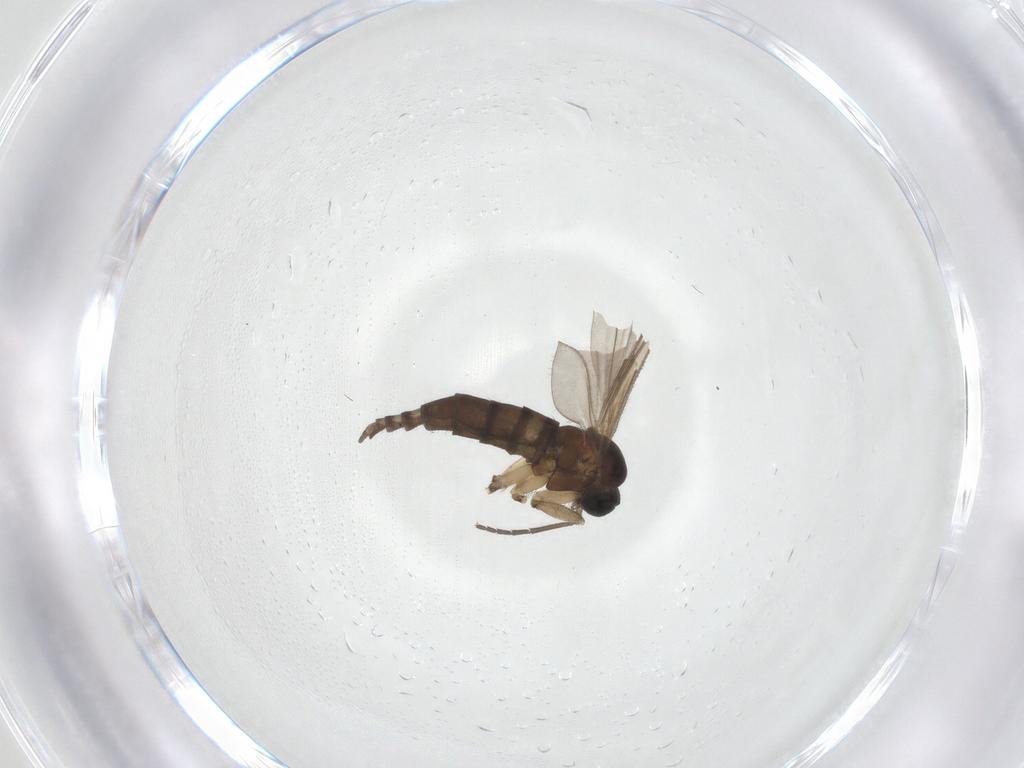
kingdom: Animalia
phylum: Arthropoda
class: Insecta
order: Diptera
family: Sciaridae
